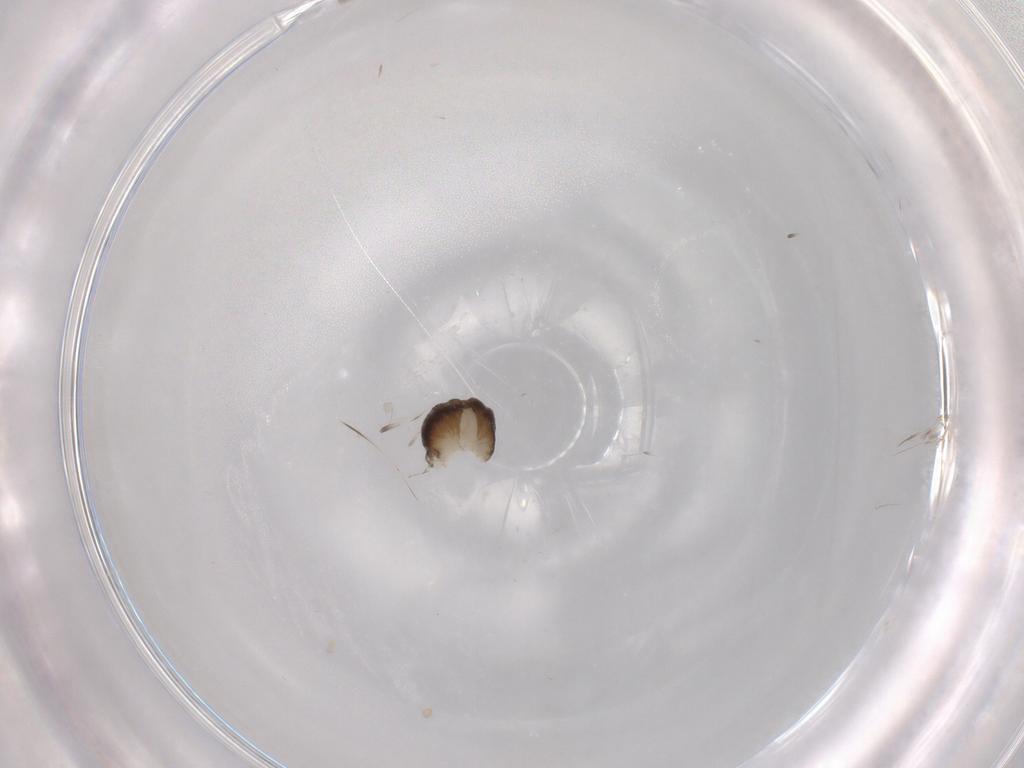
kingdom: Animalia
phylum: Arthropoda
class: Insecta
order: Hymenoptera
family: Dryinidae
